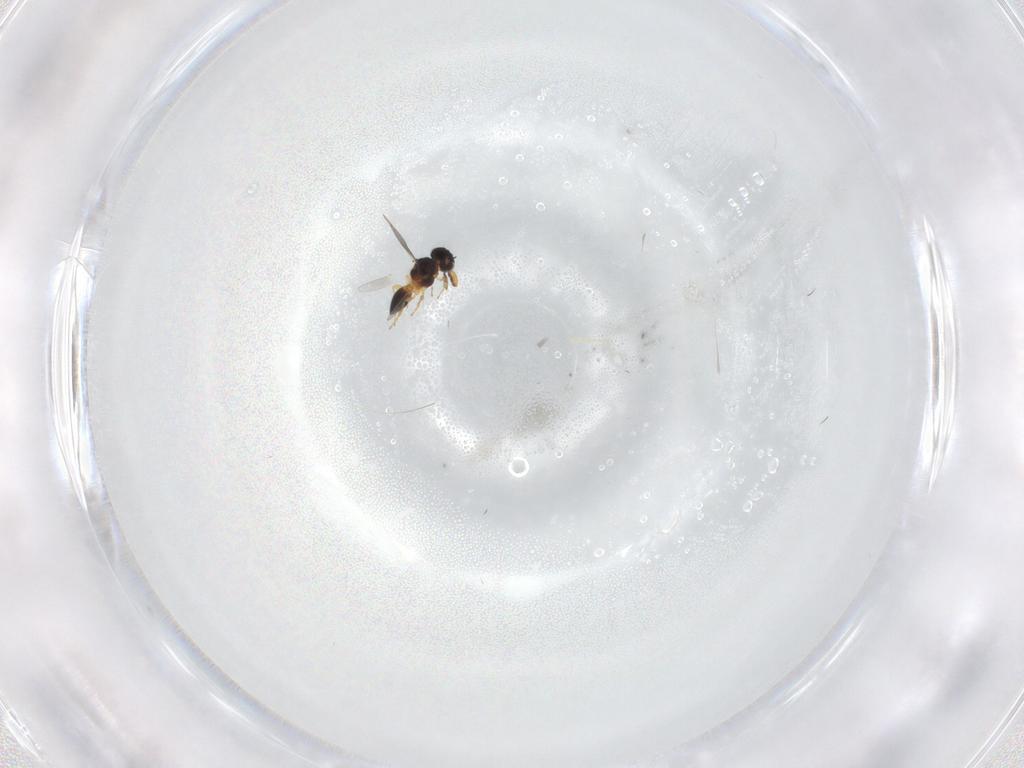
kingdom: Animalia
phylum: Arthropoda
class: Insecta
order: Hymenoptera
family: Platygastridae
